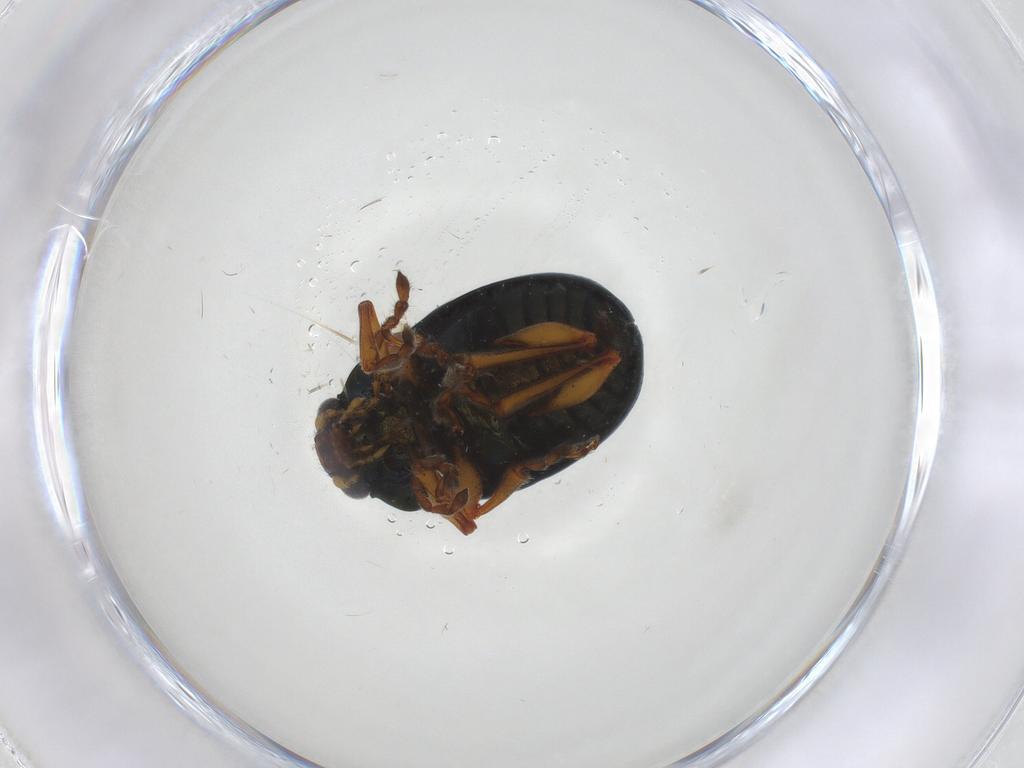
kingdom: Animalia
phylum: Arthropoda
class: Insecta
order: Coleoptera
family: Chrysomelidae
